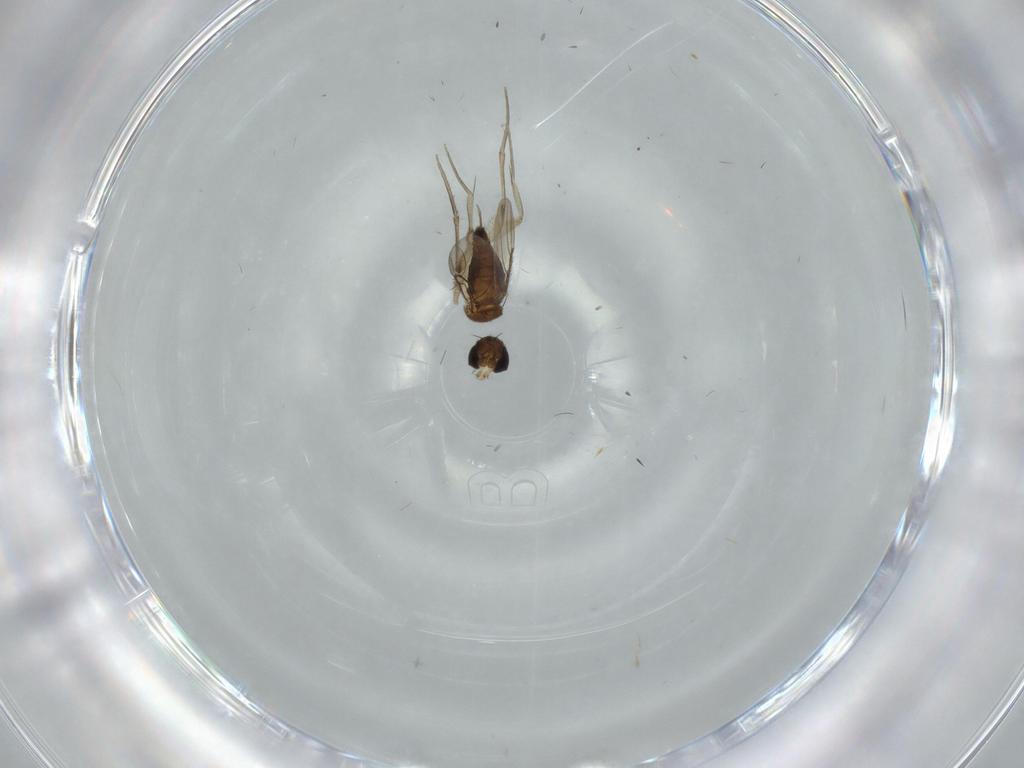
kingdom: Animalia
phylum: Arthropoda
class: Insecta
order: Diptera
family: Phoridae
